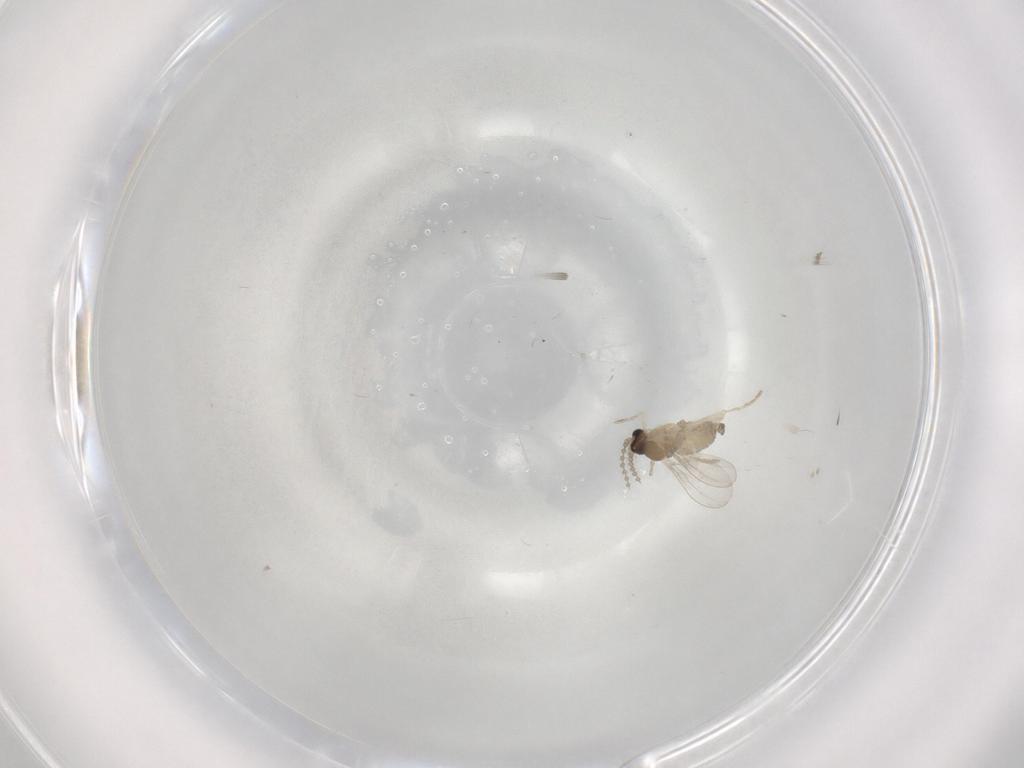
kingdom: Animalia
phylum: Arthropoda
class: Insecta
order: Diptera
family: Cecidomyiidae
